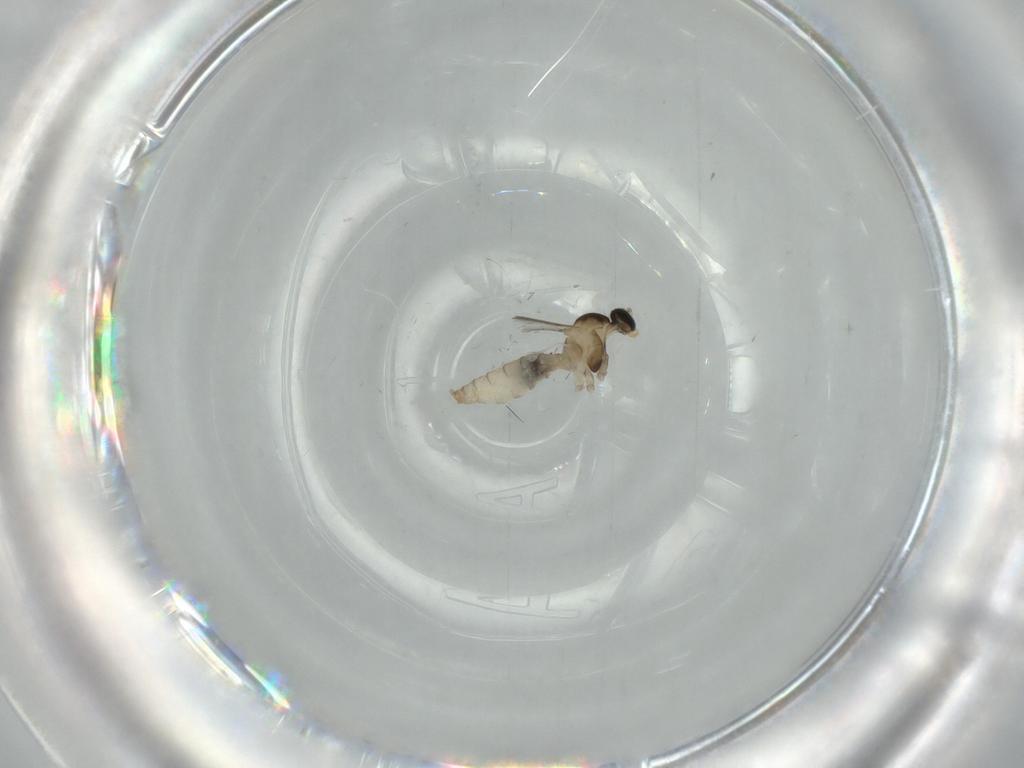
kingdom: Animalia
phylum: Arthropoda
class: Insecta
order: Diptera
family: Cecidomyiidae
